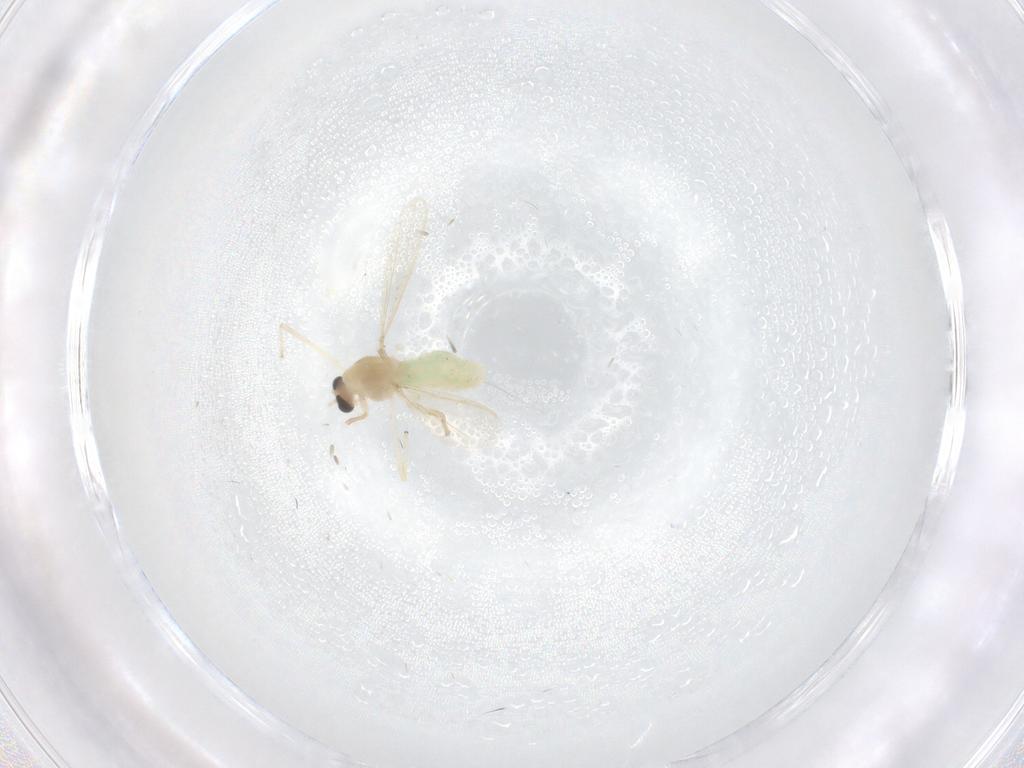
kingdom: Animalia
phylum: Arthropoda
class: Insecta
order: Diptera
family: Chironomidae
